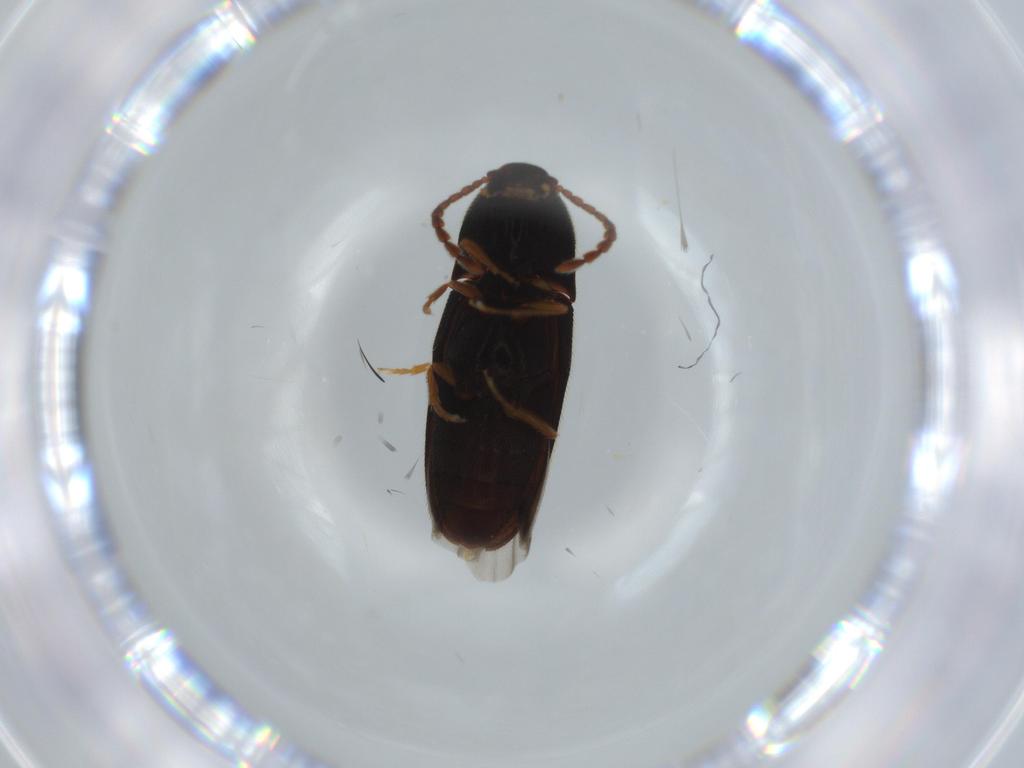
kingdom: Animalia
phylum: Arthropoda
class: Insecta
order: Coleoptera
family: Elateridae
